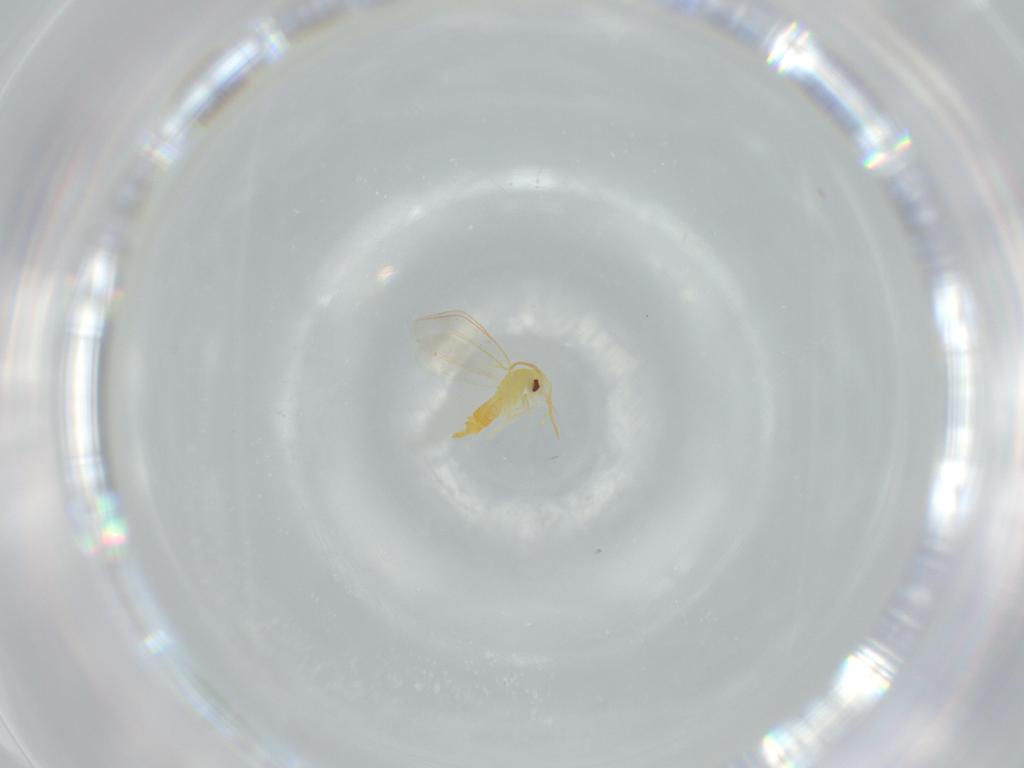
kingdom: Animalia
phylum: Arthropoda
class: Insecta
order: Hemiptera
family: Aleyrodidae
